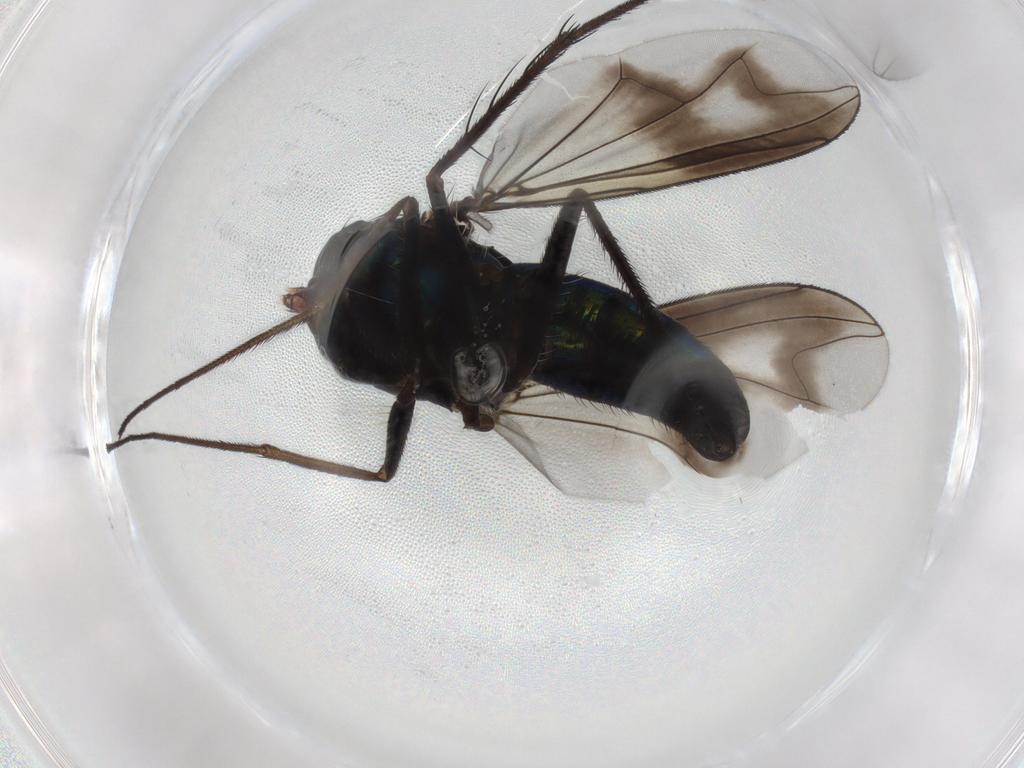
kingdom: Animalia
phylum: Arthropoda
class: Insecta
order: Diptera
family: Dolichopodidae
